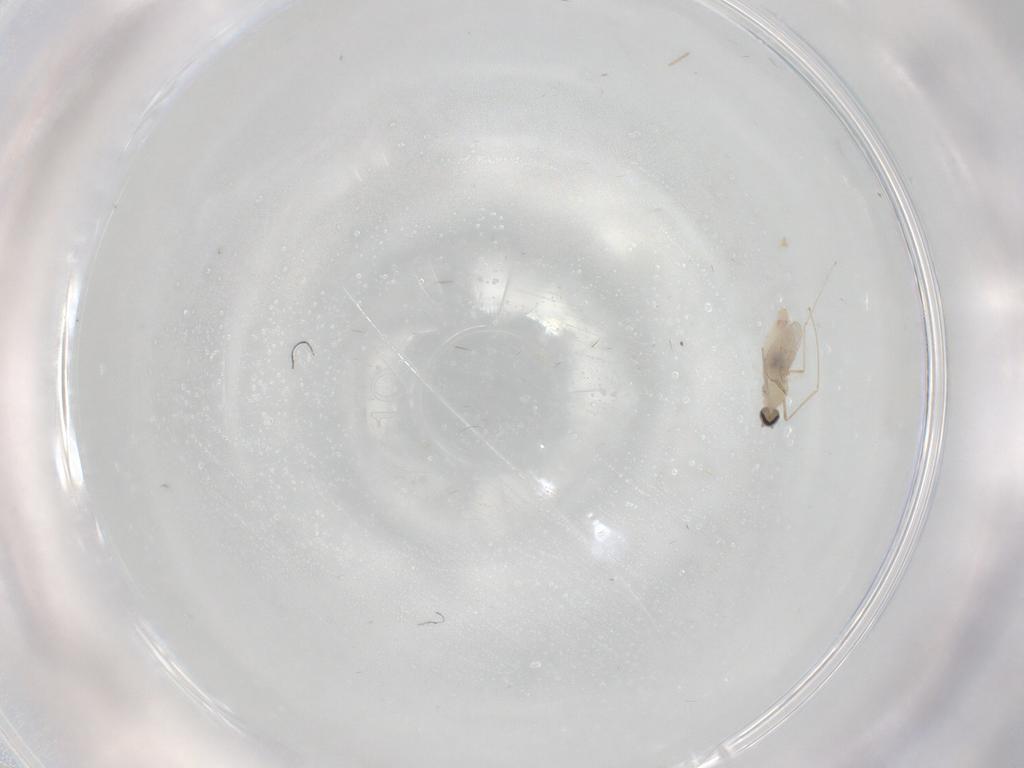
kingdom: Animalia
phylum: Arthropoda
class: Insecta
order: Diptera
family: Cecidomyiidae
